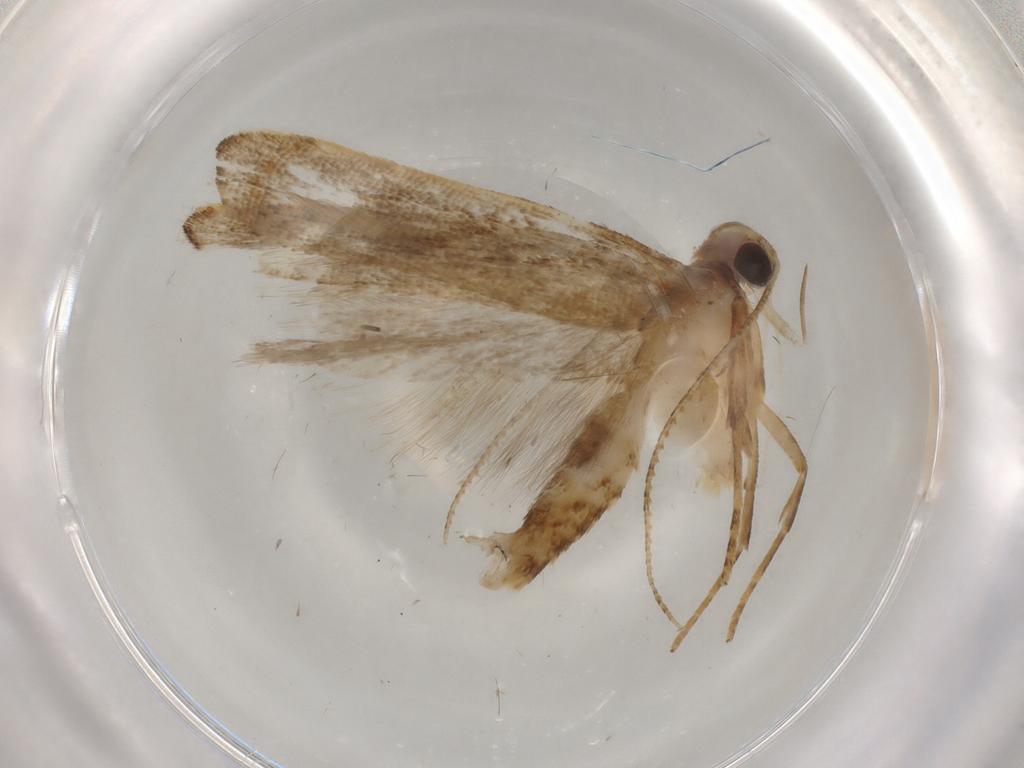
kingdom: Animalia
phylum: Arthropoda
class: Insecta
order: Lepidoptera
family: Gelechiidae
